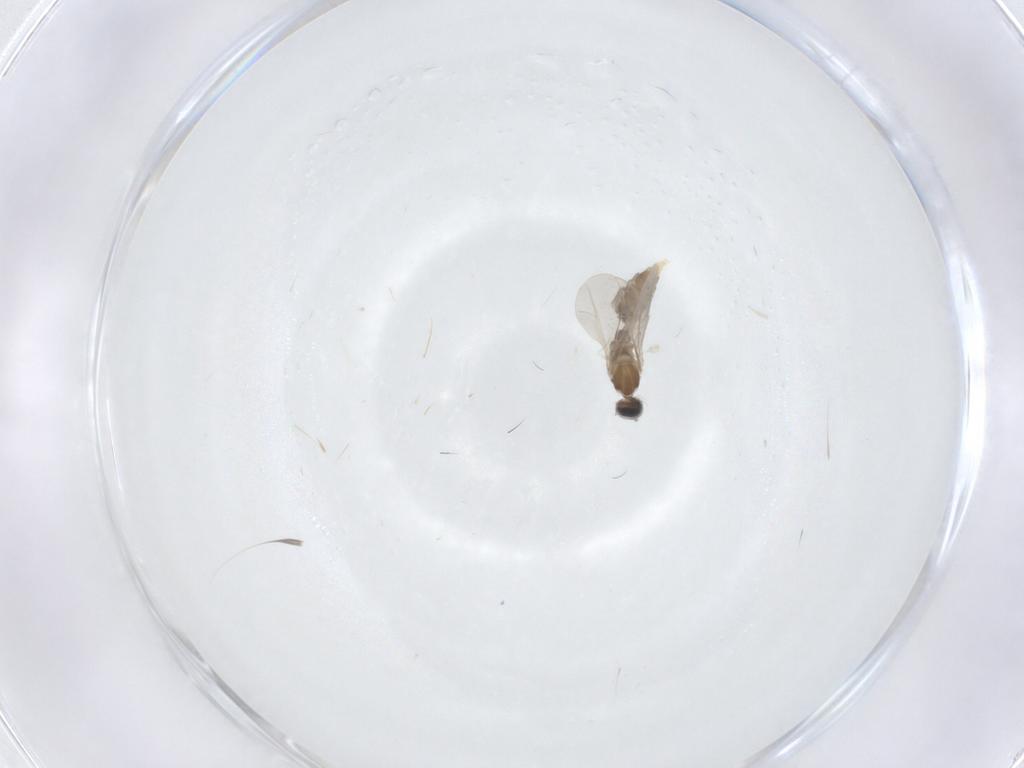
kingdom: Animalia
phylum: Arthropoda
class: Insecta
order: Diptera
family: Cecidomyiidae
